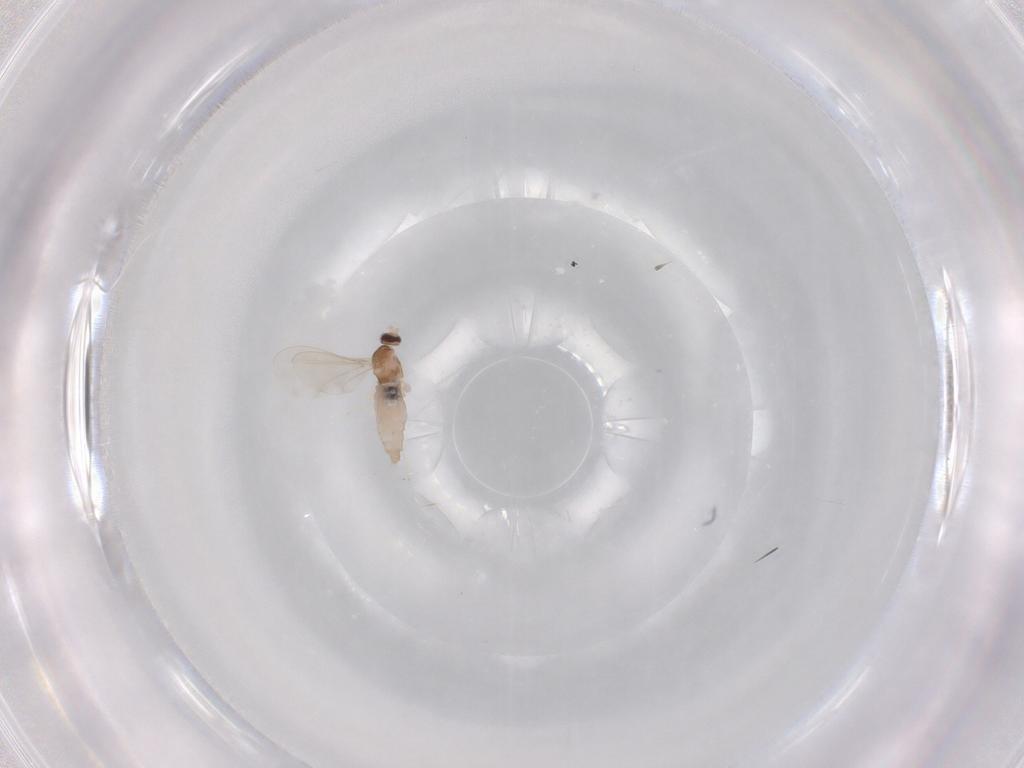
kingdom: Animalia
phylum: Arthropoda
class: Insecta
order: Diptera
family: Cecidomyiidae
